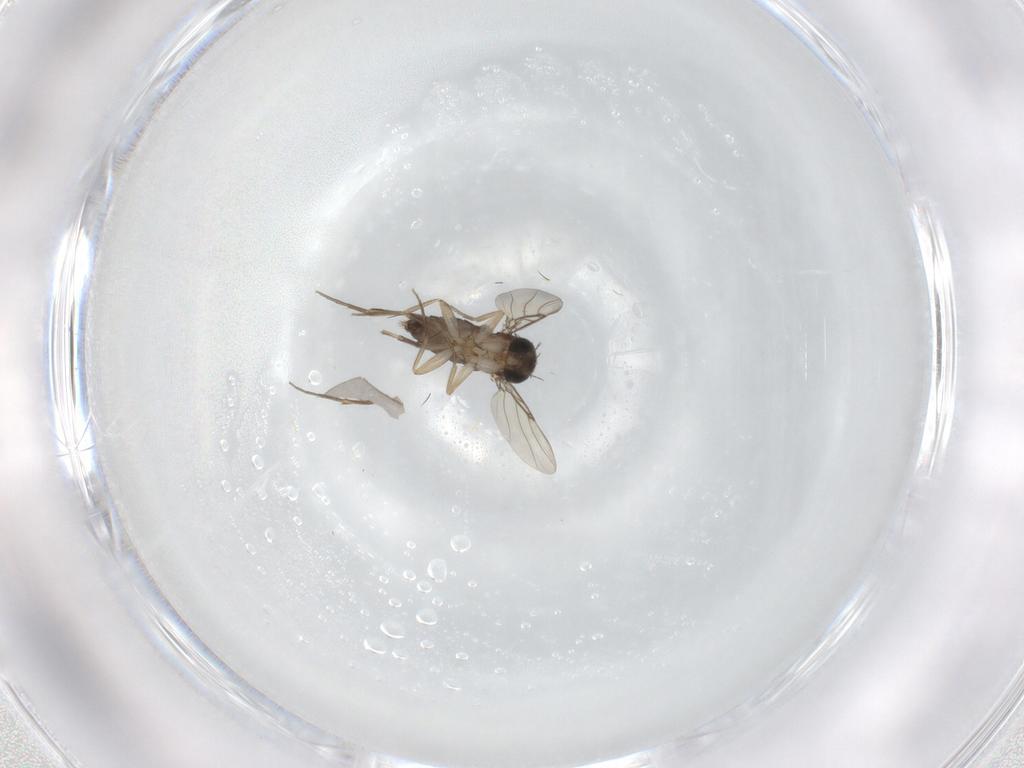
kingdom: Animalia
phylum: Arthropoda
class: Insecta
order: Diptera
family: Phoridae
